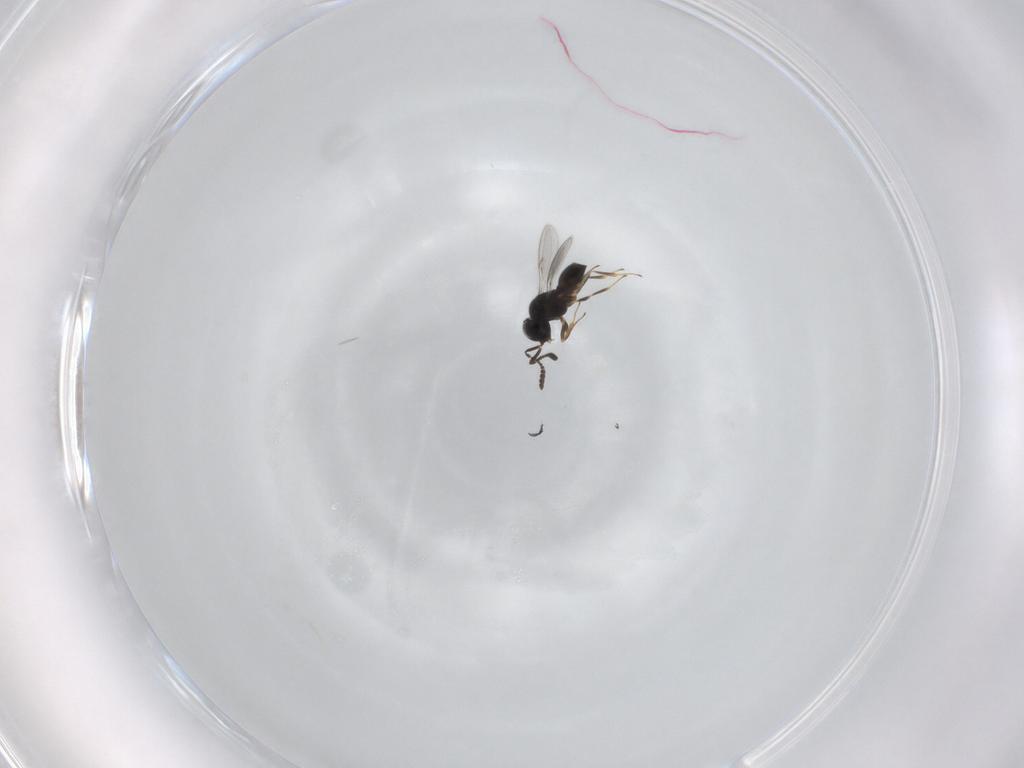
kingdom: Animalia
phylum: Arthropoda
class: Insecta
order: Hymenoptera
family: Scelionidae
